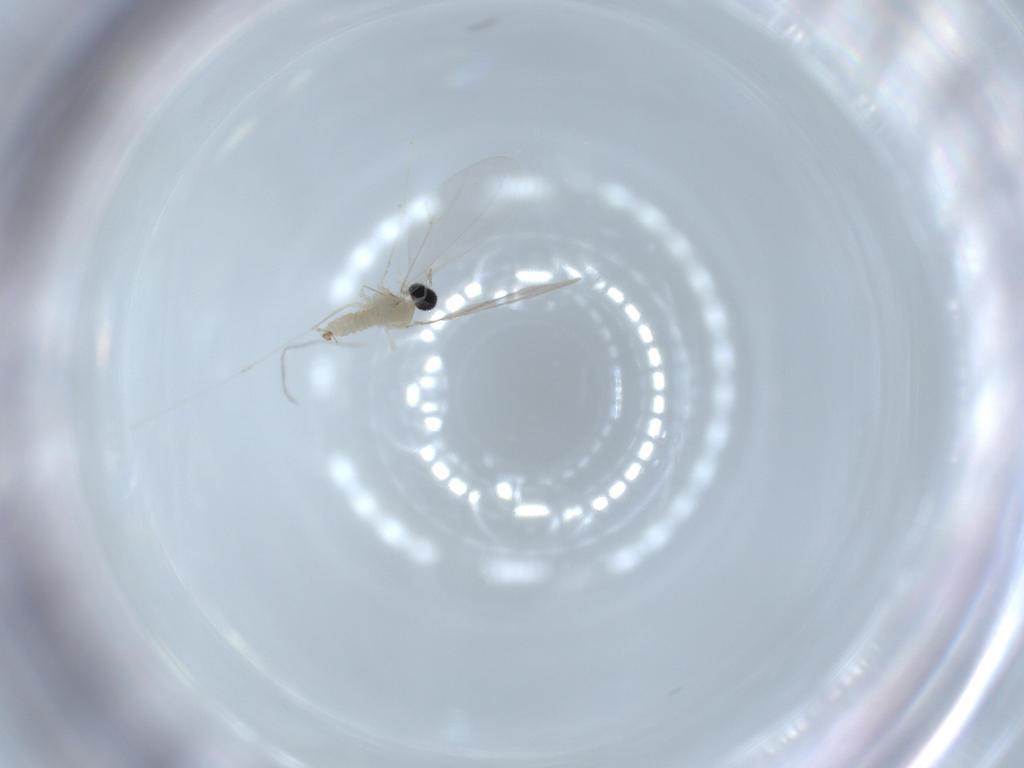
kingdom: Animalia
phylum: Arthropoda
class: Insecta
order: Diptera
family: Cecidomyiidae
